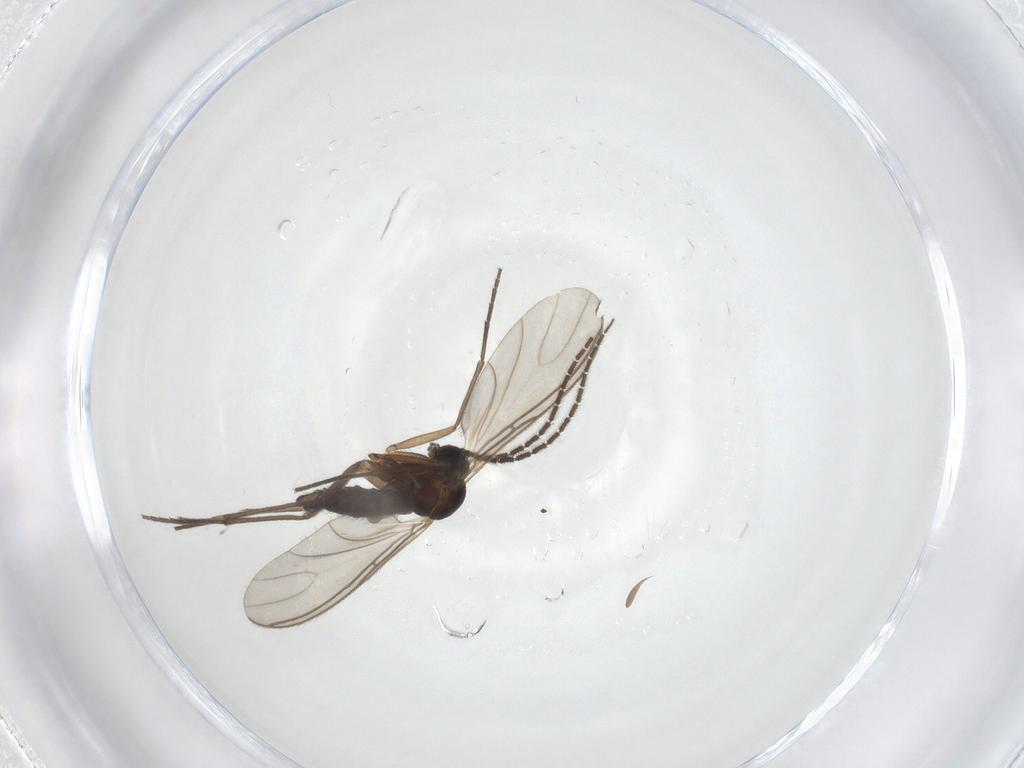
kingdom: Animalia
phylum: Arthropoda
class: Insecta
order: Diptera
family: Sciaridae
